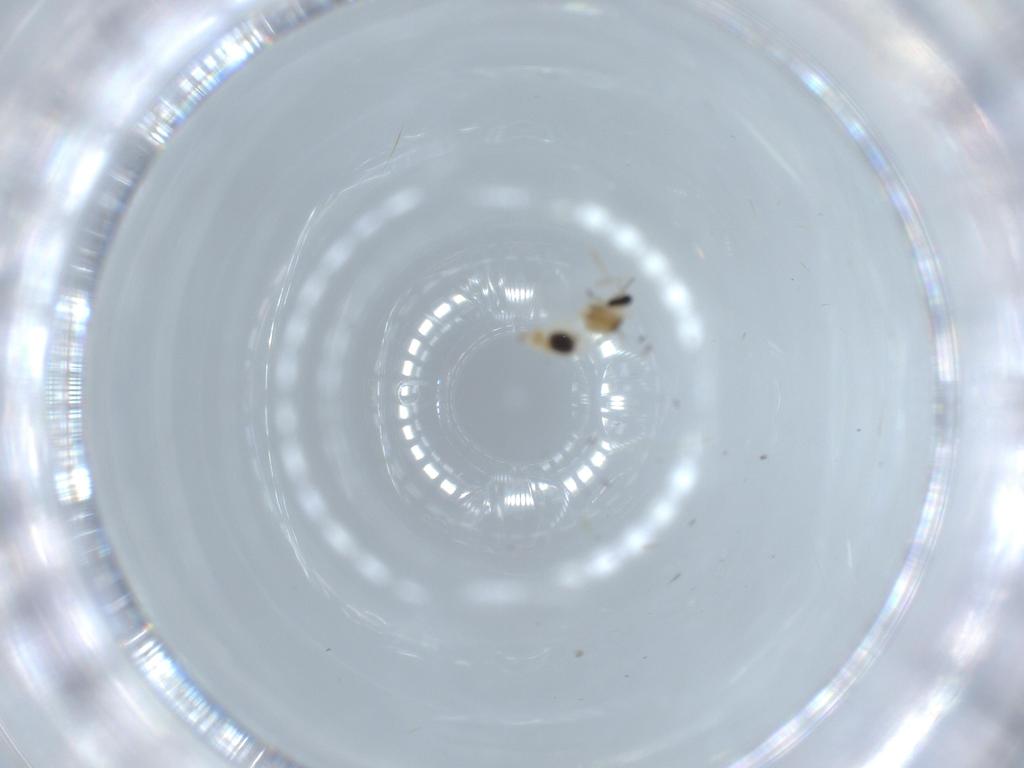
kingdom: Animalia
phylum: Arthropoda
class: Insecta
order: Diptera
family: Cecidomyiidae
